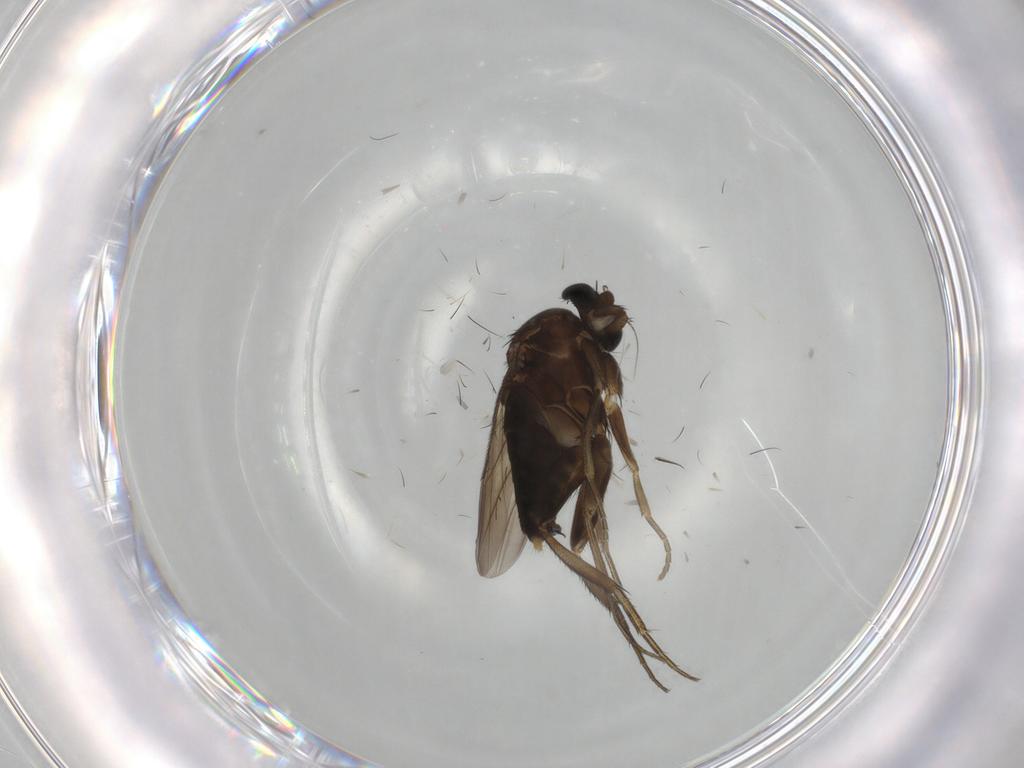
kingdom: Animalia
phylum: Arthropoda
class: Insecta
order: Diptera
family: Phoridae
